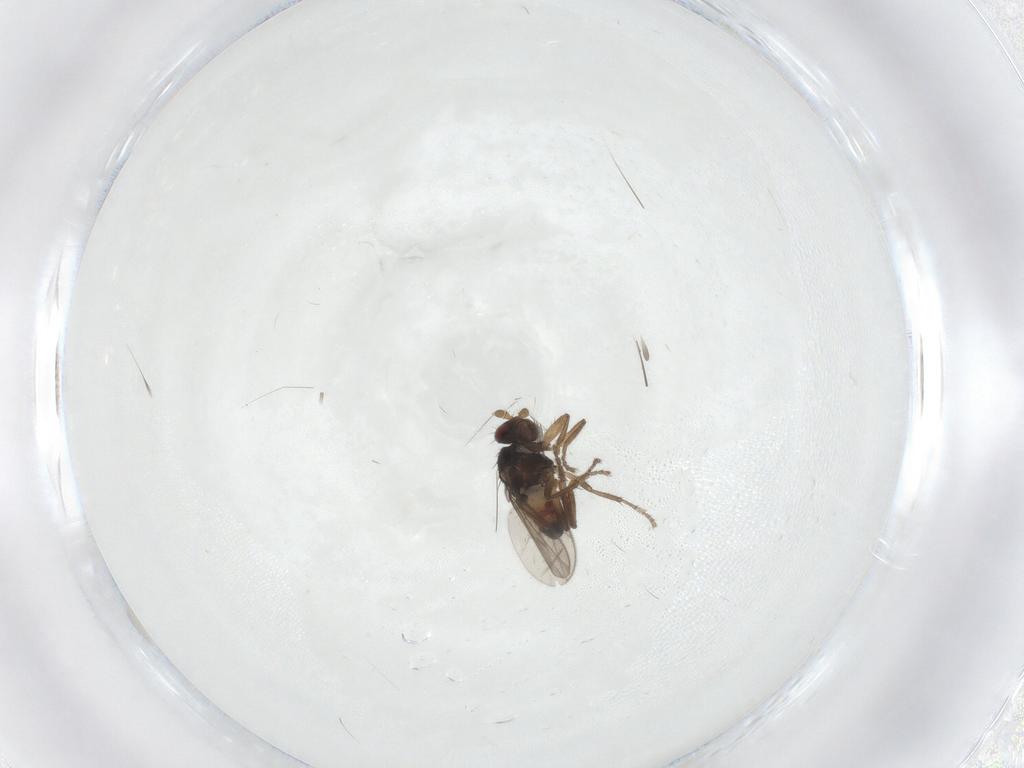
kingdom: Animalia
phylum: Arthropoda
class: Insecta
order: Diptera
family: Sphaeroceridae
